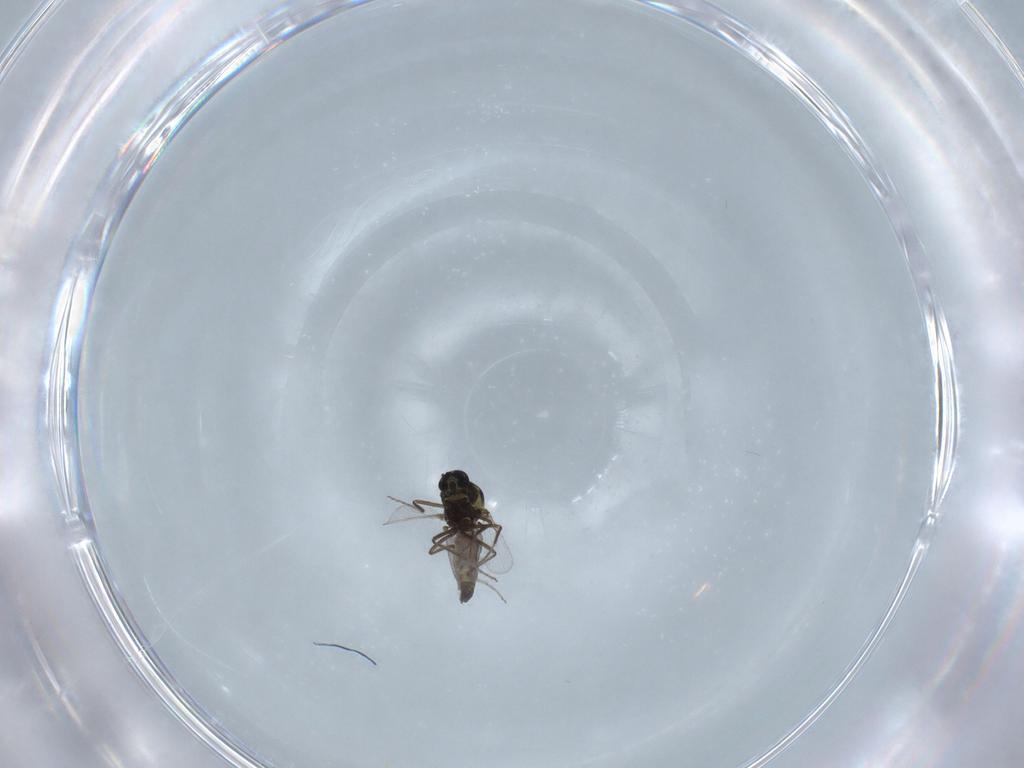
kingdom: Animalia
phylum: Arthropoda
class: Insecta
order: Diptera
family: Ceratopogonidae
